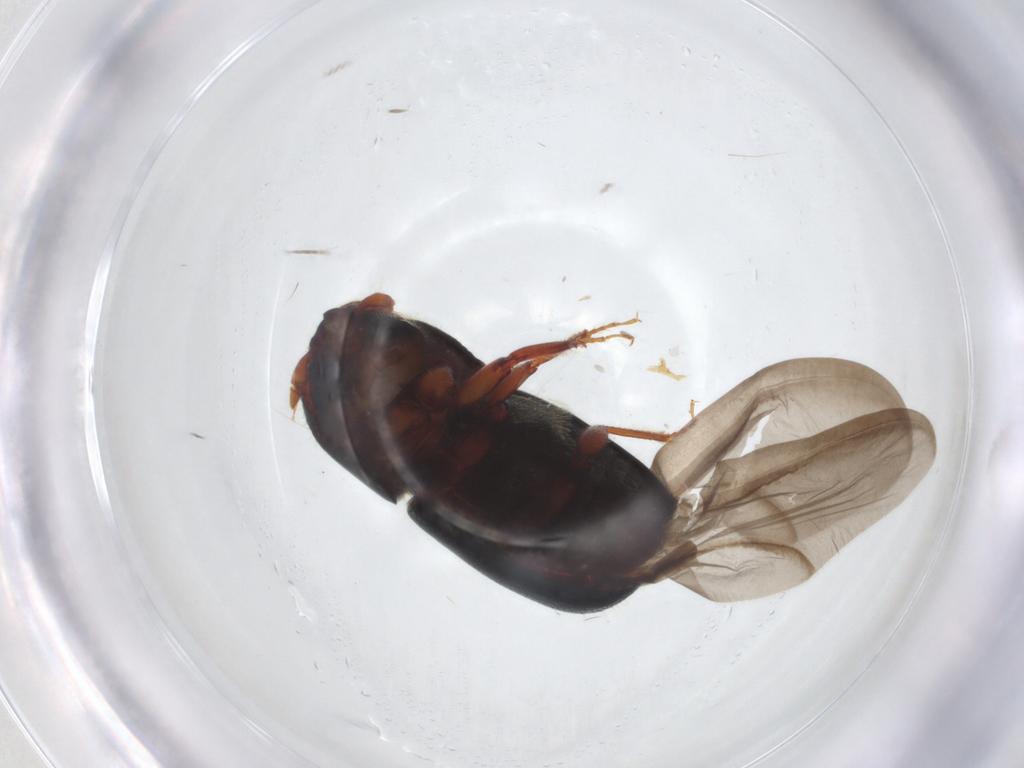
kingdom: Animalia
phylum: Arthropoda
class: Insecta
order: Coleoptera
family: Curculionidae
